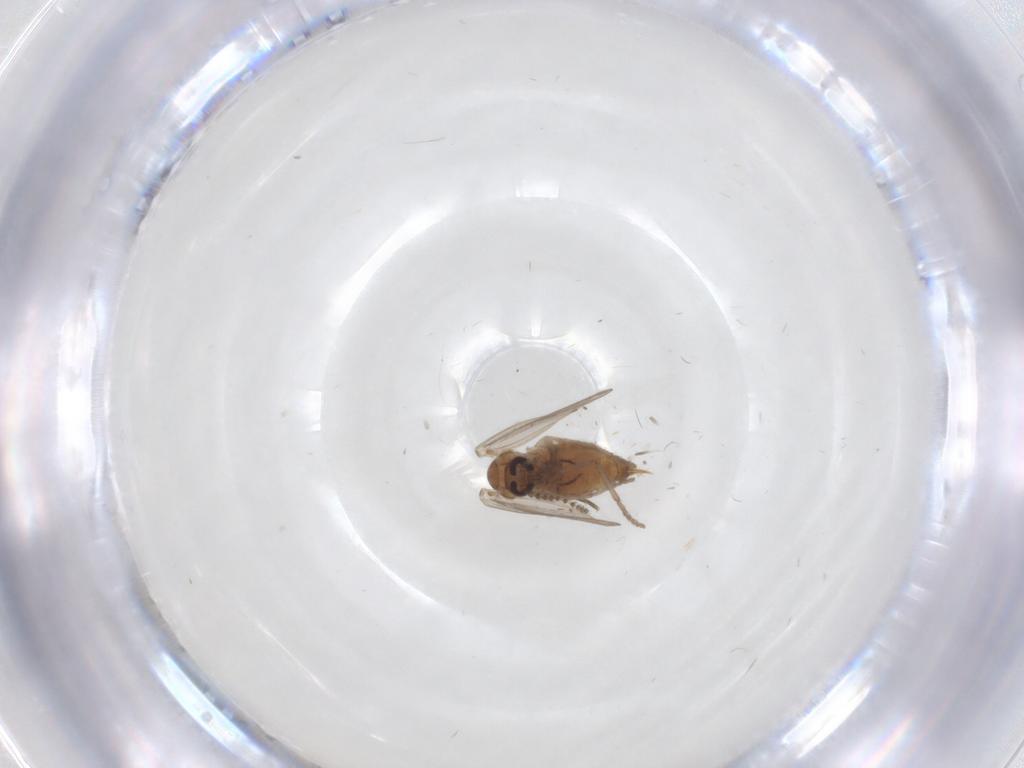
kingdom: Animalia
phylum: Arthropoda
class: Insecta
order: Diptera
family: Psychodidae
